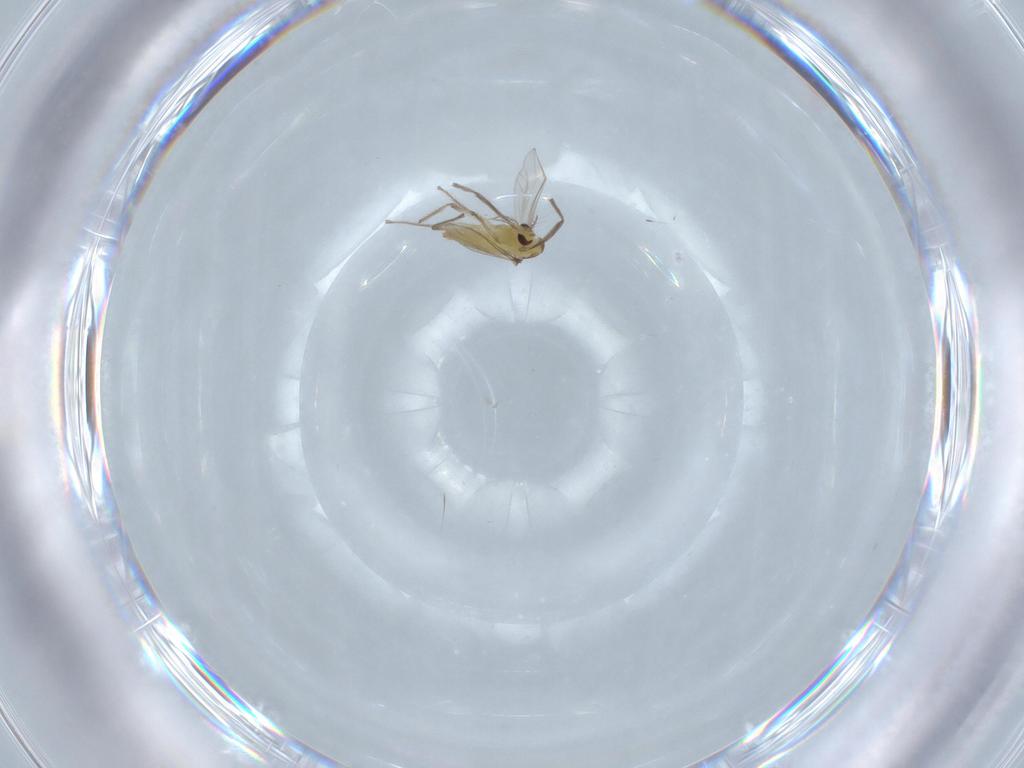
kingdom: Animalia
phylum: Arthropoda
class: Insecta
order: Diptera
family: Chironomidae
